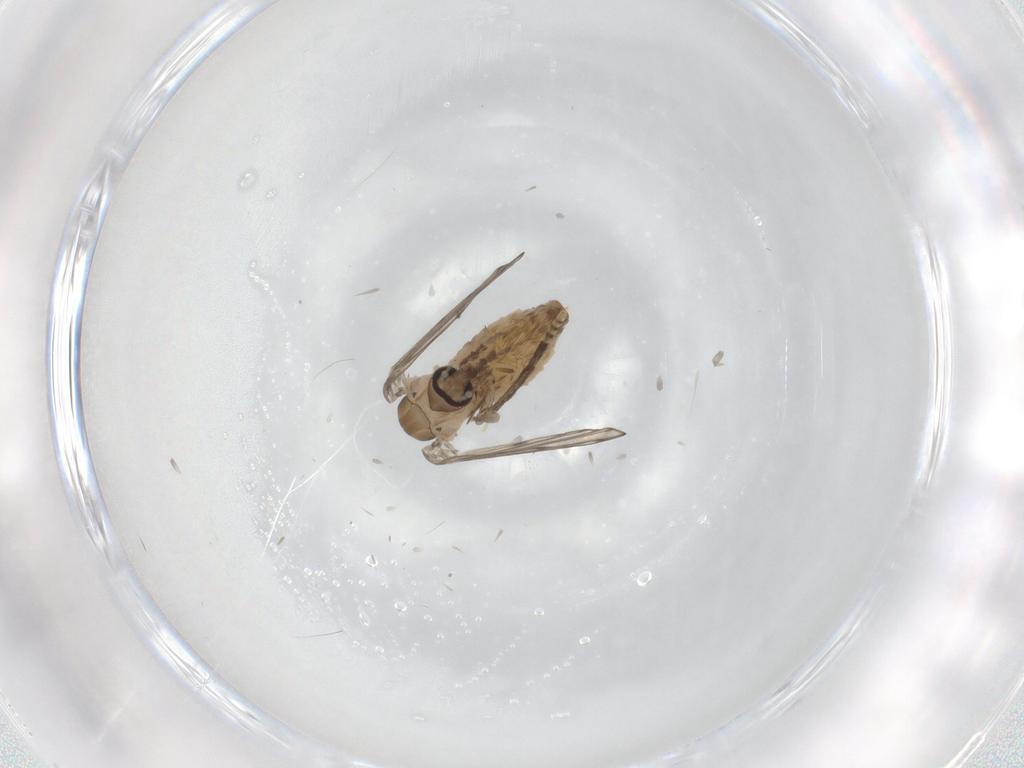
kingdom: Animalia
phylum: Arthropoda
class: Insecta
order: Diptera
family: Psychodidae
